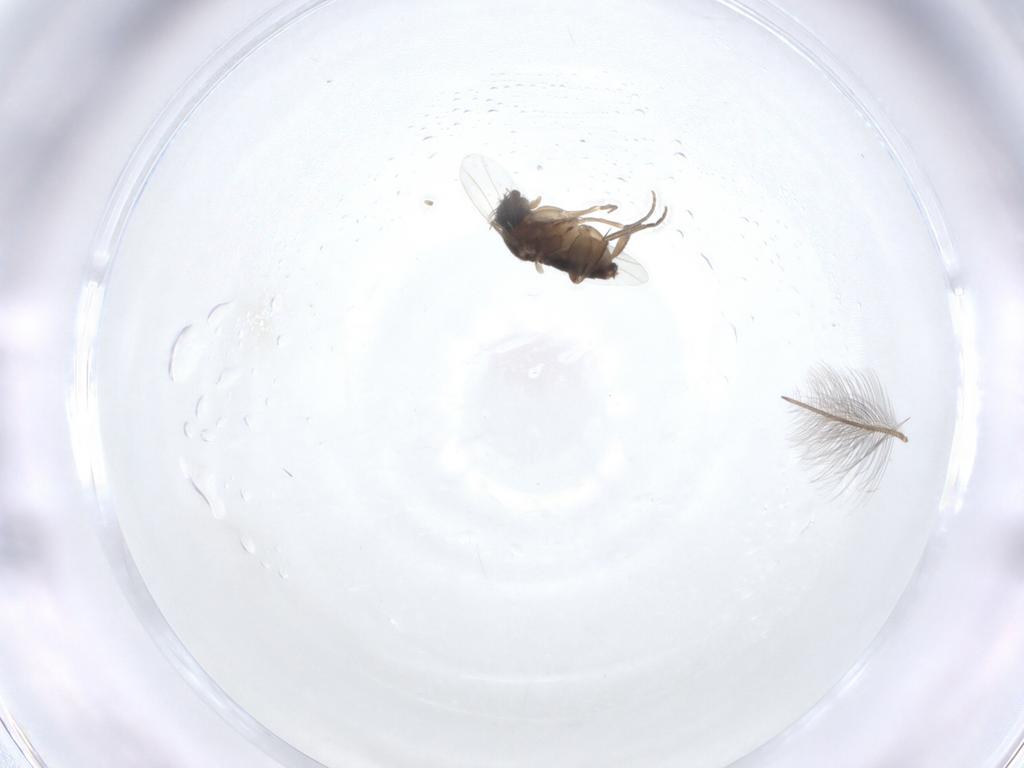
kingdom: Animalia
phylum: Arthropoda
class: Insecta
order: Diptera
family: Phoridae
